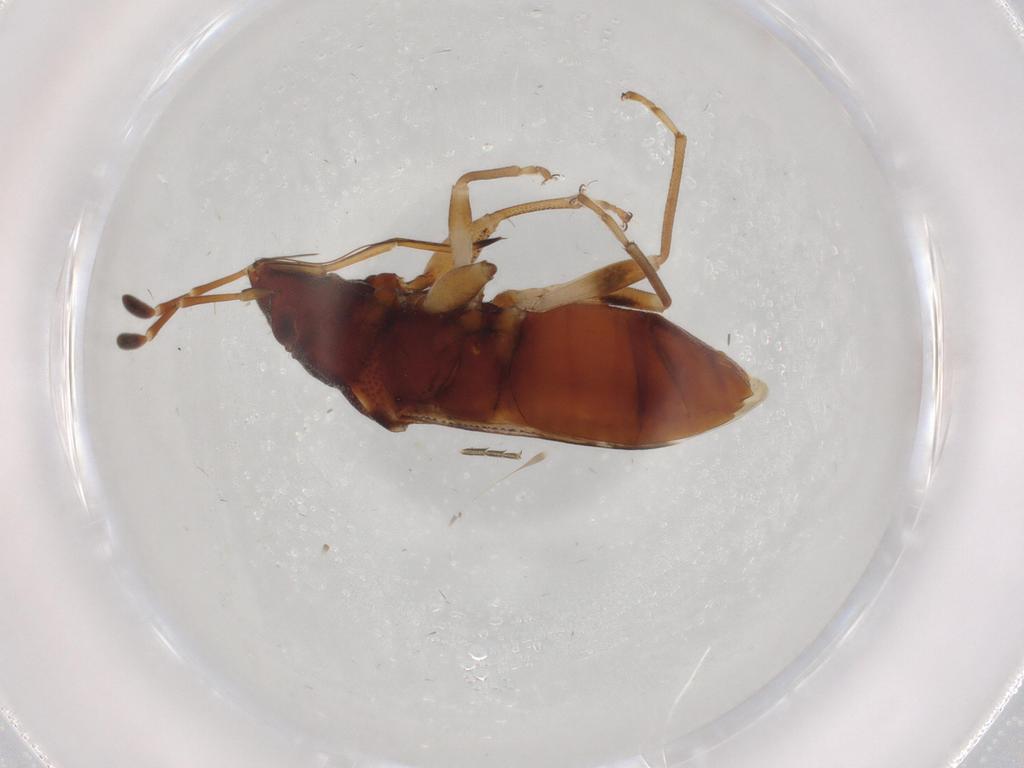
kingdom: Animalia
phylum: Arthropoda
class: Insecta
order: Hemiptera
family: Rhyparochromidae
